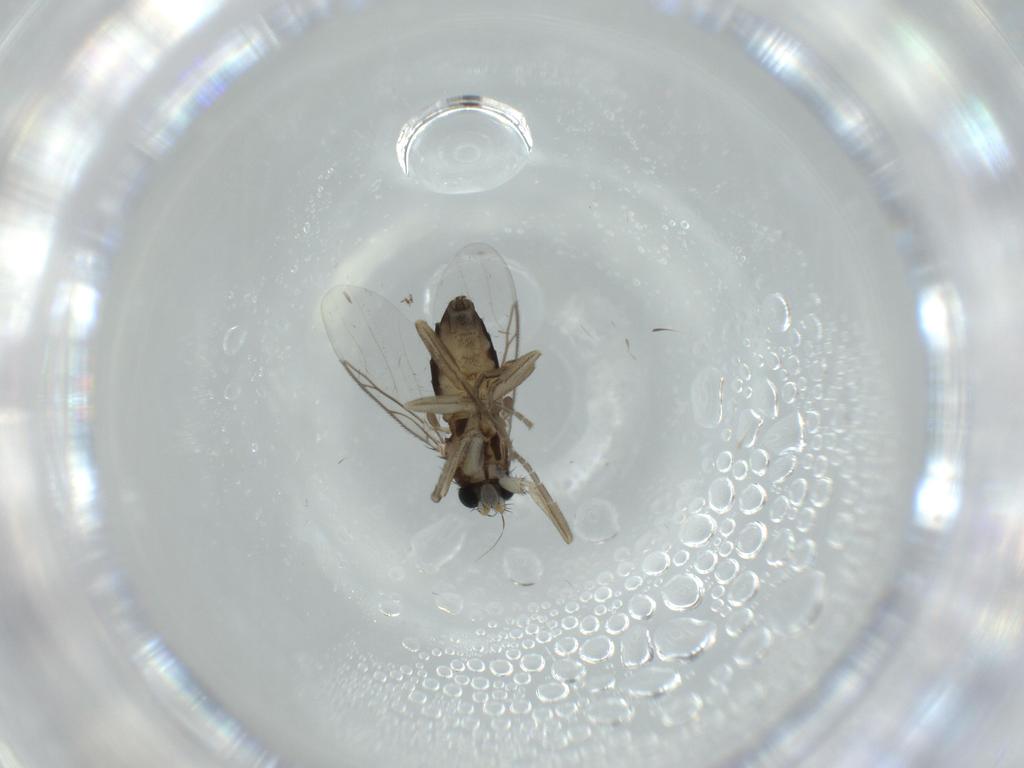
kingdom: Animalia
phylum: Arthropoda
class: Insecta
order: Diptera
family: Phoridae
